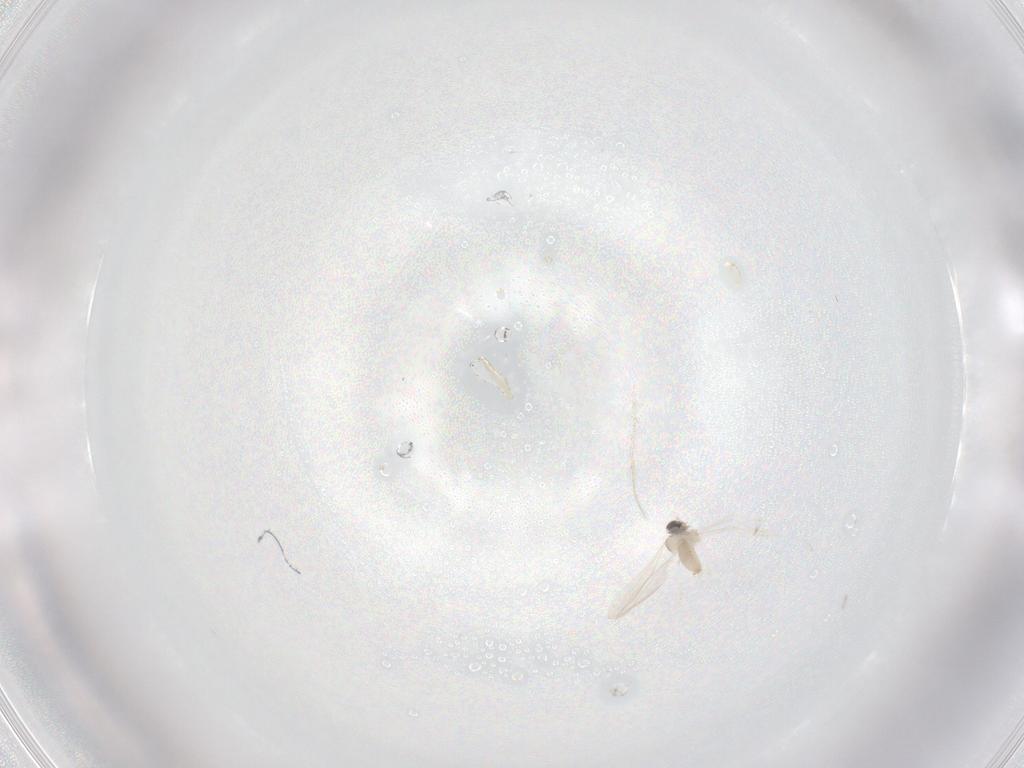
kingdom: Animalia
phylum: Arthropoda
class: Insecta
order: Diptera
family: Cecidomyiidae
